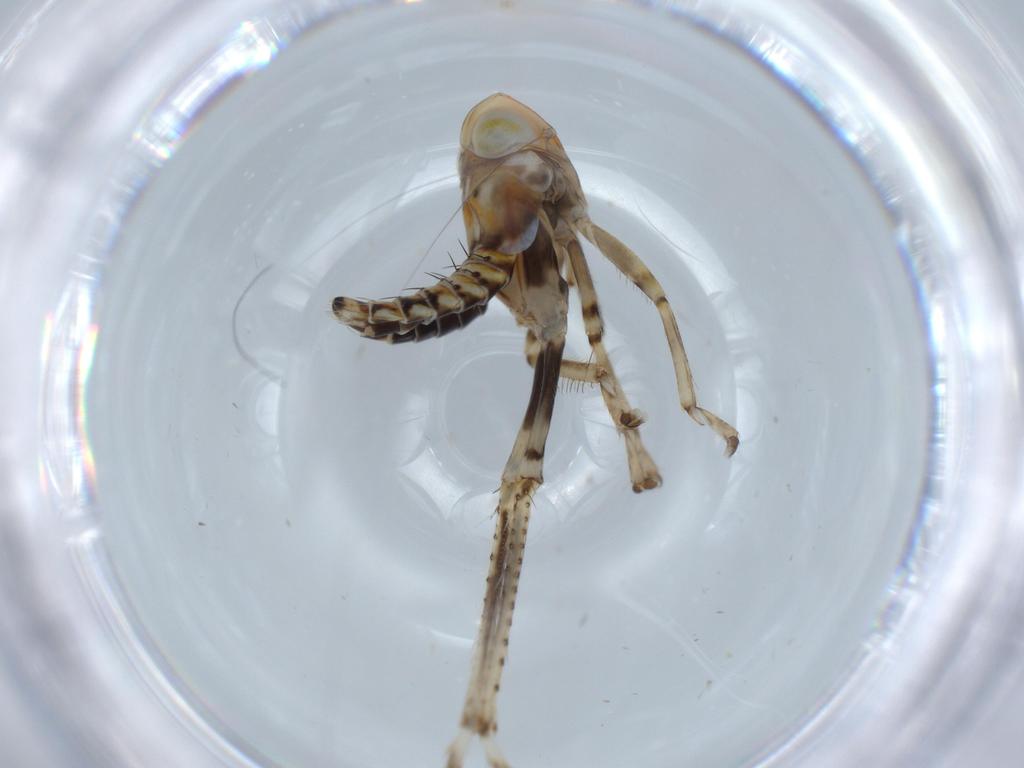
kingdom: Animalia
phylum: Arthropoda
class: Insecta
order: Hemiptera
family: Cicadellidae
